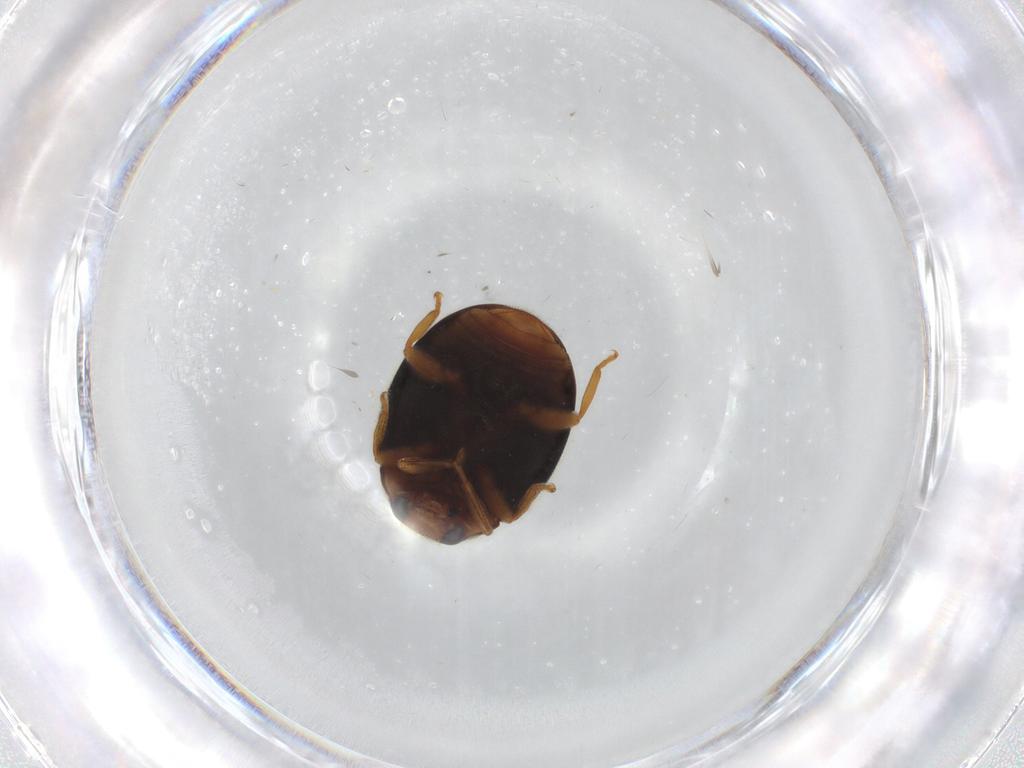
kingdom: Animalia
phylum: Arthropoda
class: Insecta
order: Coleoptera
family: Coccinellidae
